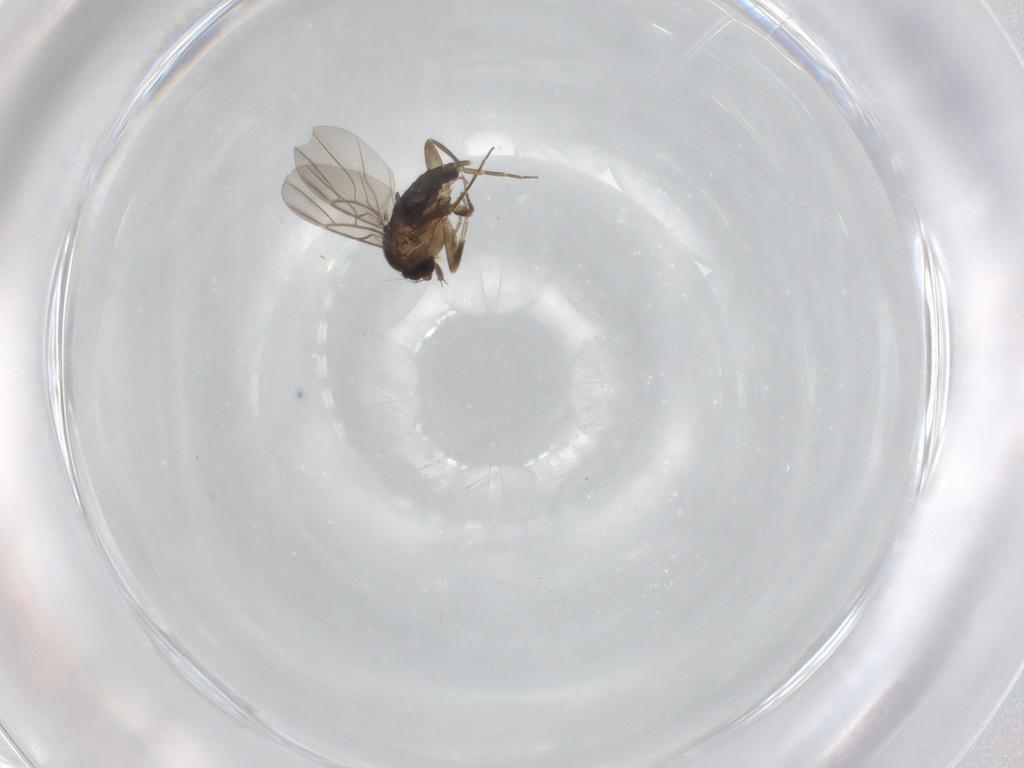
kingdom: Animalia
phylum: Arthropoda
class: Insecta
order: Diptera
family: Phoridae
